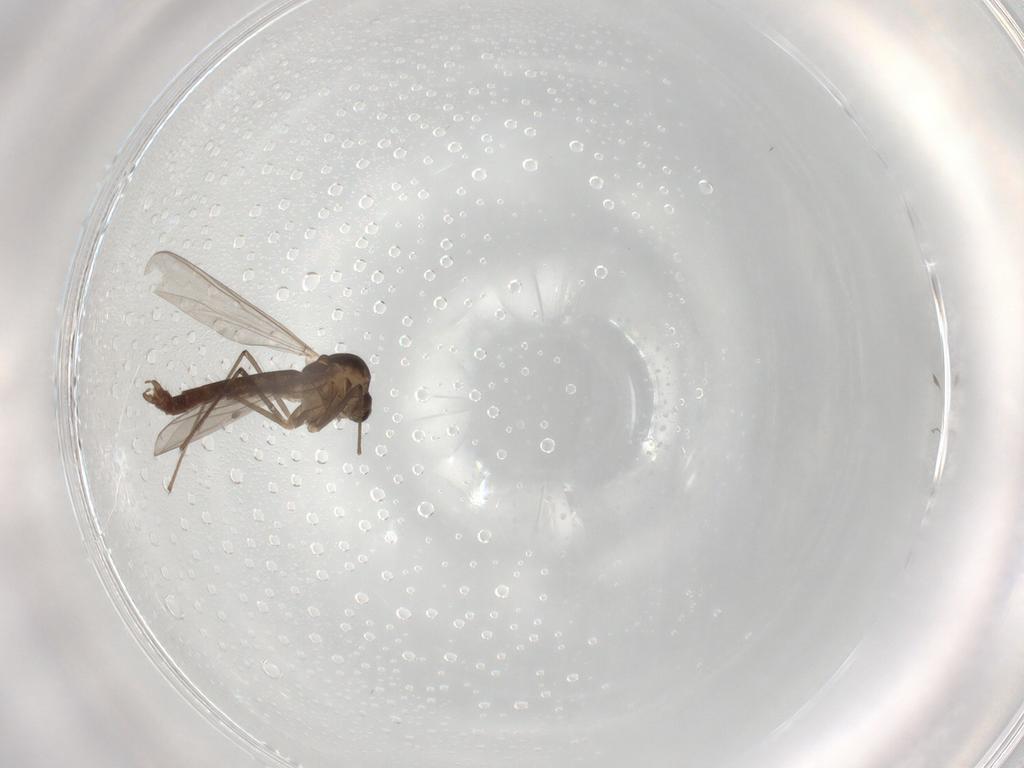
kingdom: Animalia
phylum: Arthropoda
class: Insecta
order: Diptera
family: Chironomidae
